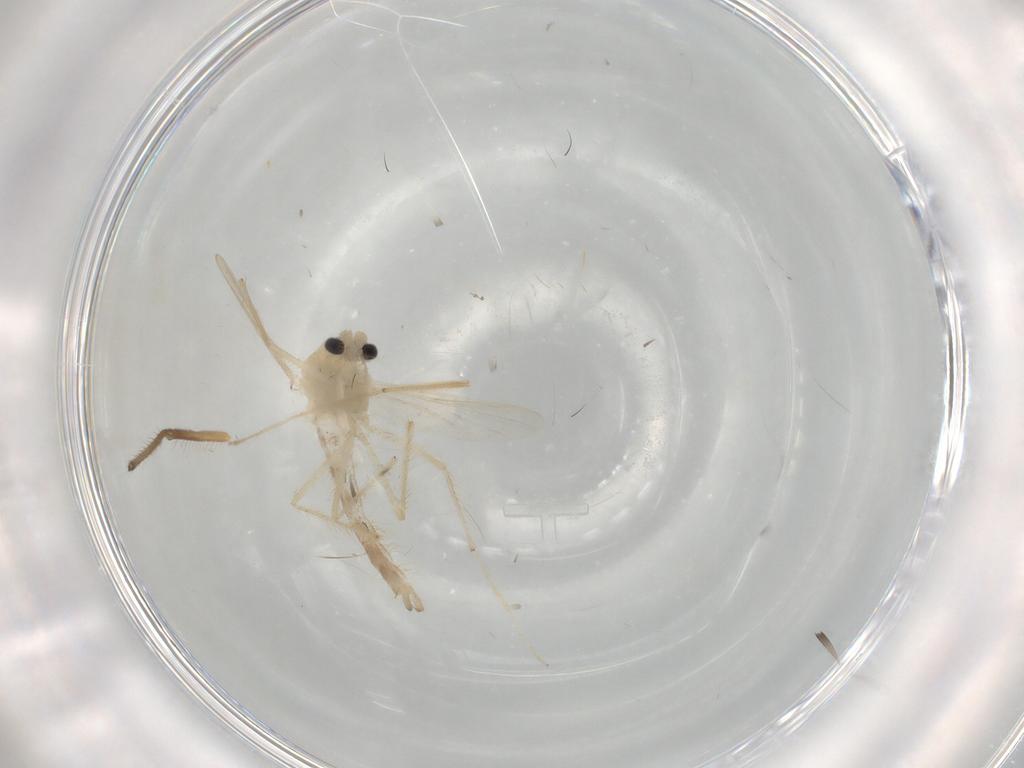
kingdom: Animalia
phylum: Arthropoda
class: Insecta
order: Diptera
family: Chironomidae
